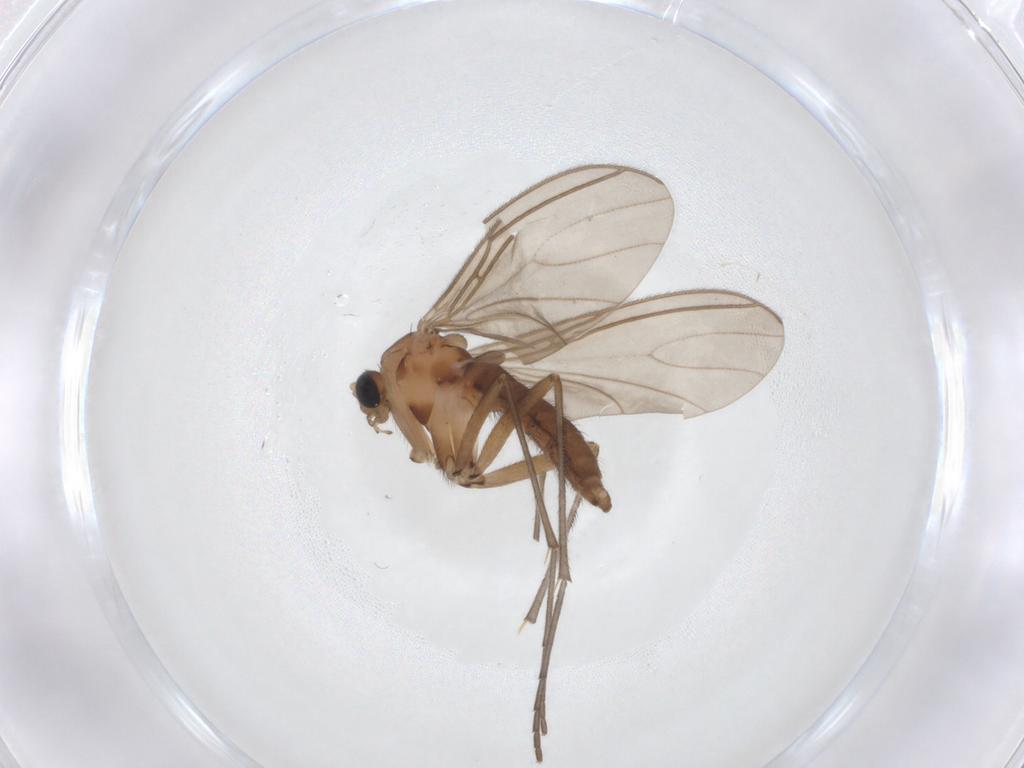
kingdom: Animalia
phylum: Arthropoda
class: Insecta
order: Diptera
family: Sciaridae
